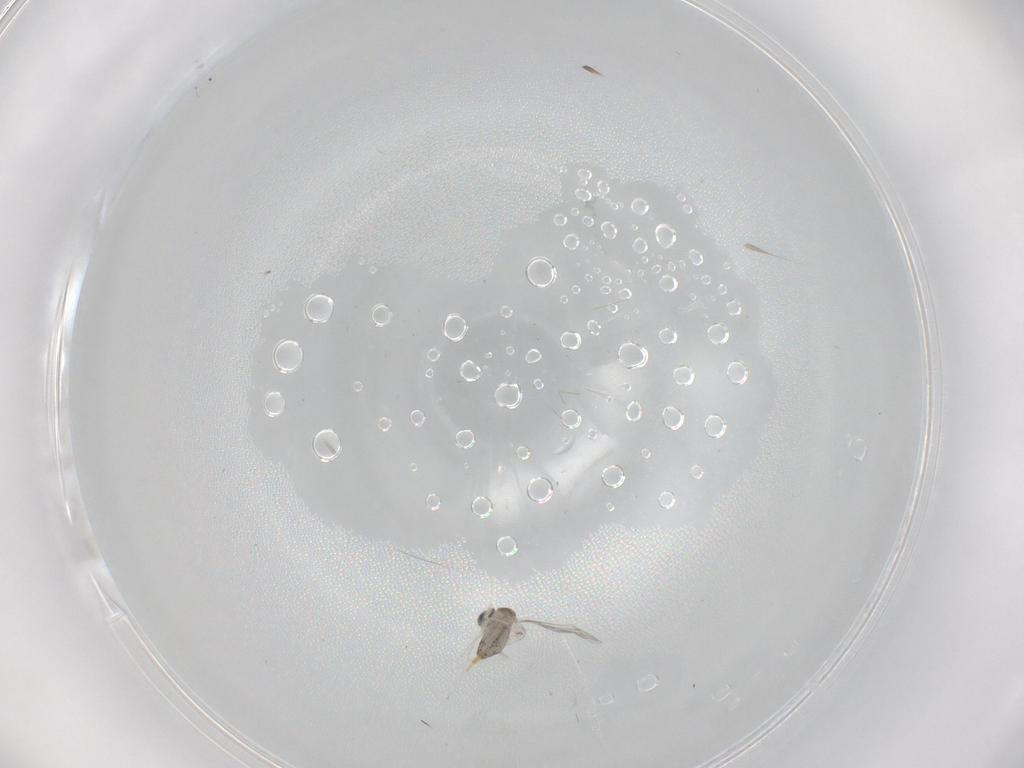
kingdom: Animalia
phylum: Arthropoda
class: Insecta
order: Diptera
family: Cecidomyiidae
